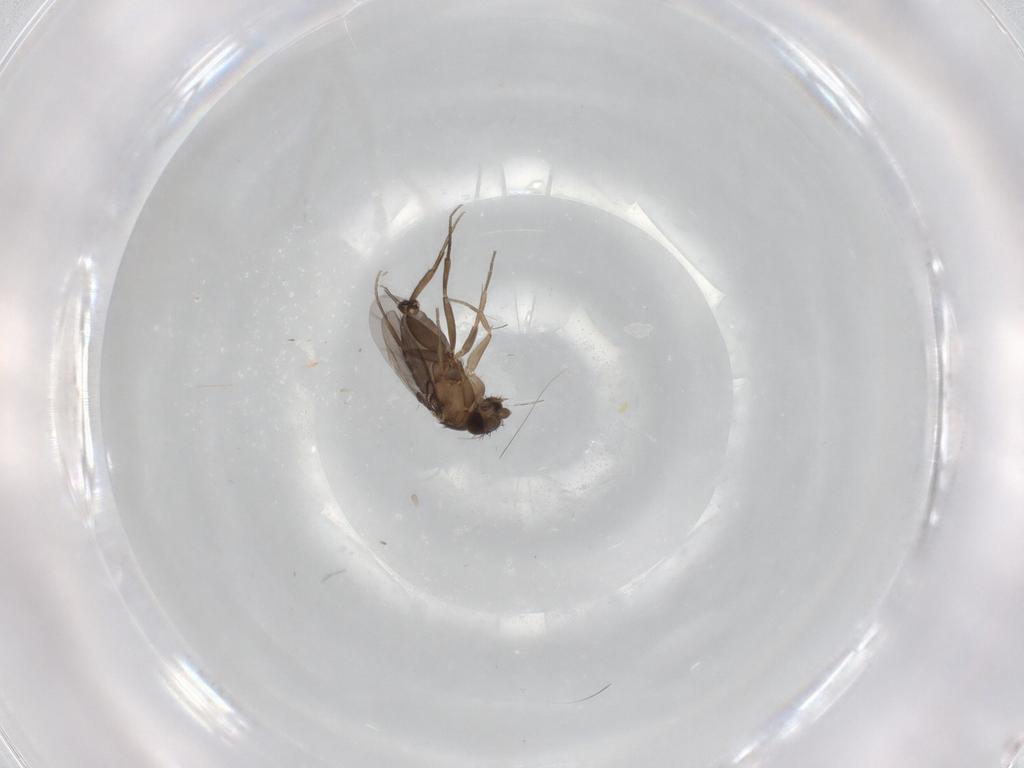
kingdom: Animalia
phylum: Arthropoda
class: Insecta
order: Diptera
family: Phoridae
